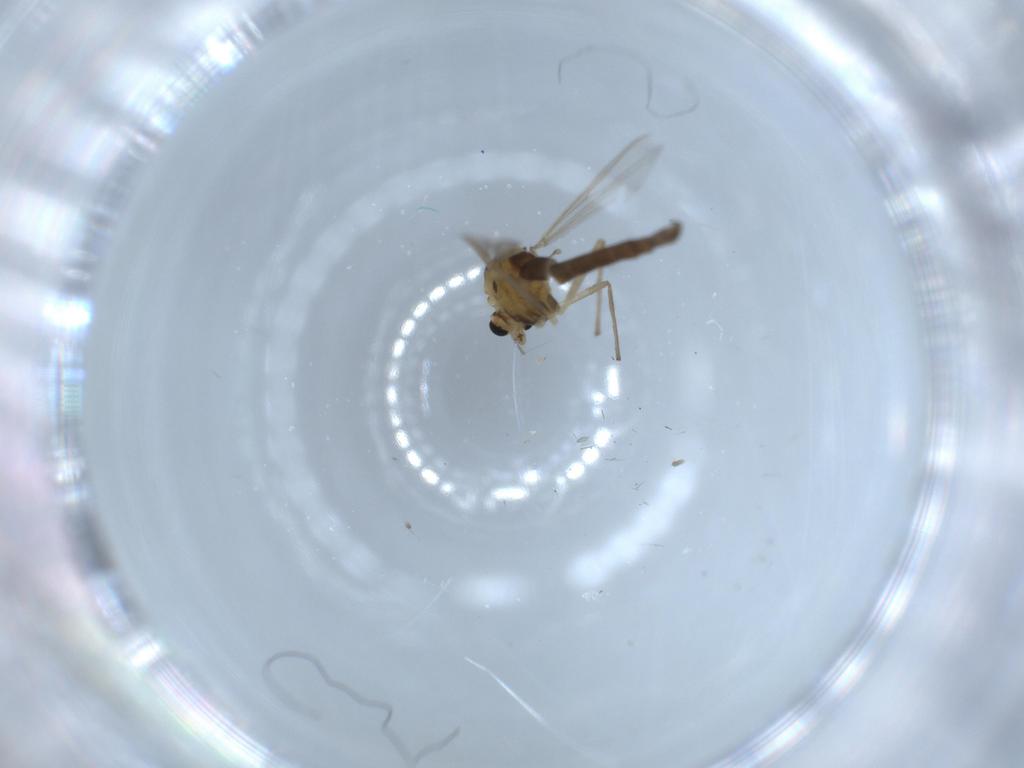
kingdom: Animalia
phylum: Arthropoda
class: Insecta
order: Diptera
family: Chironomidae
